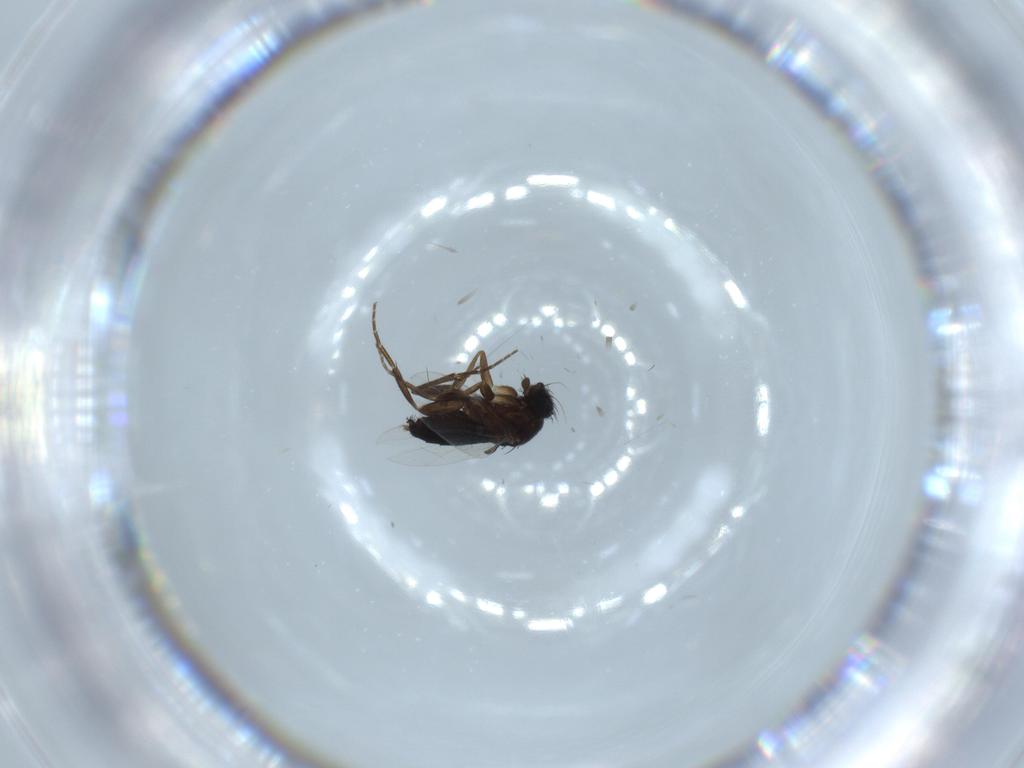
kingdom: Animalia
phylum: Arthropoda
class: Insecta
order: Diptera
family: Phoridae
